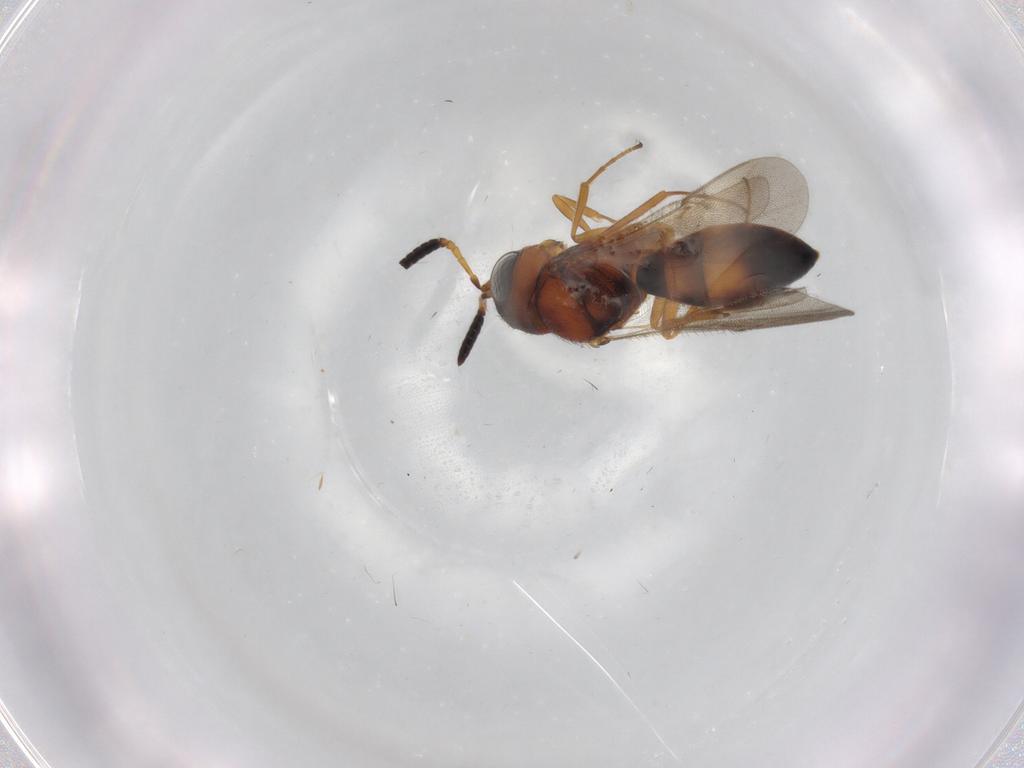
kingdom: Animalia
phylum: Arthropoda
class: Insecta
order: Hymenoptera
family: Scelionidae
